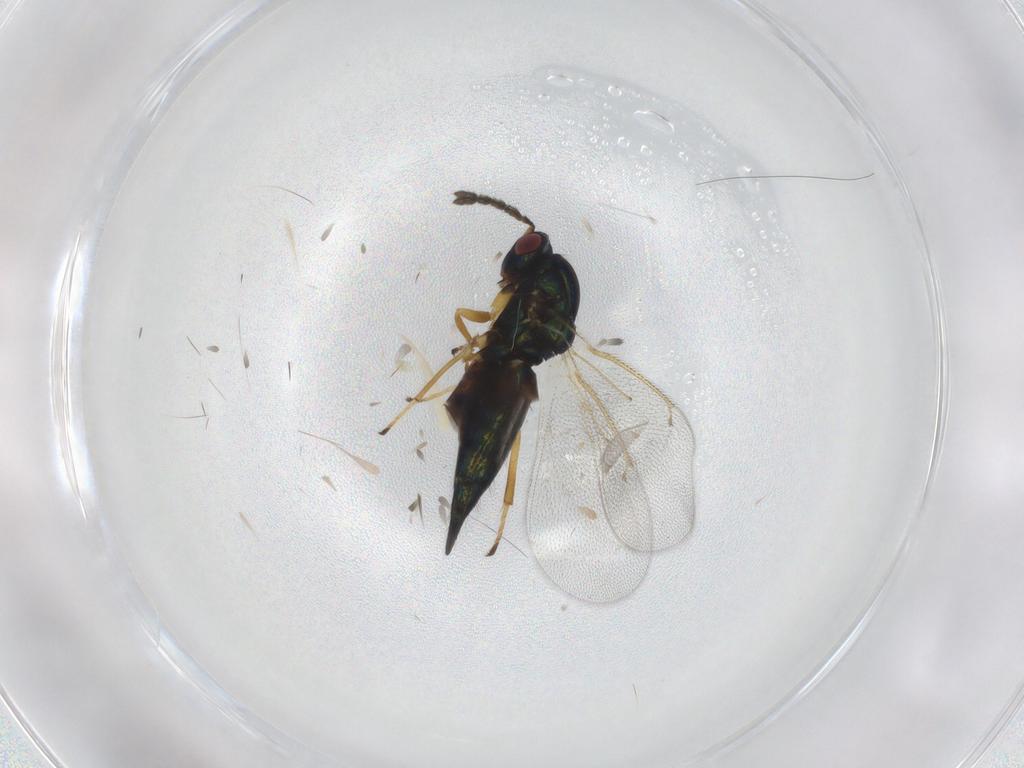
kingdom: Animalia
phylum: Arthropoda
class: Insecta
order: Hymenoptera
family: Eulophidae
